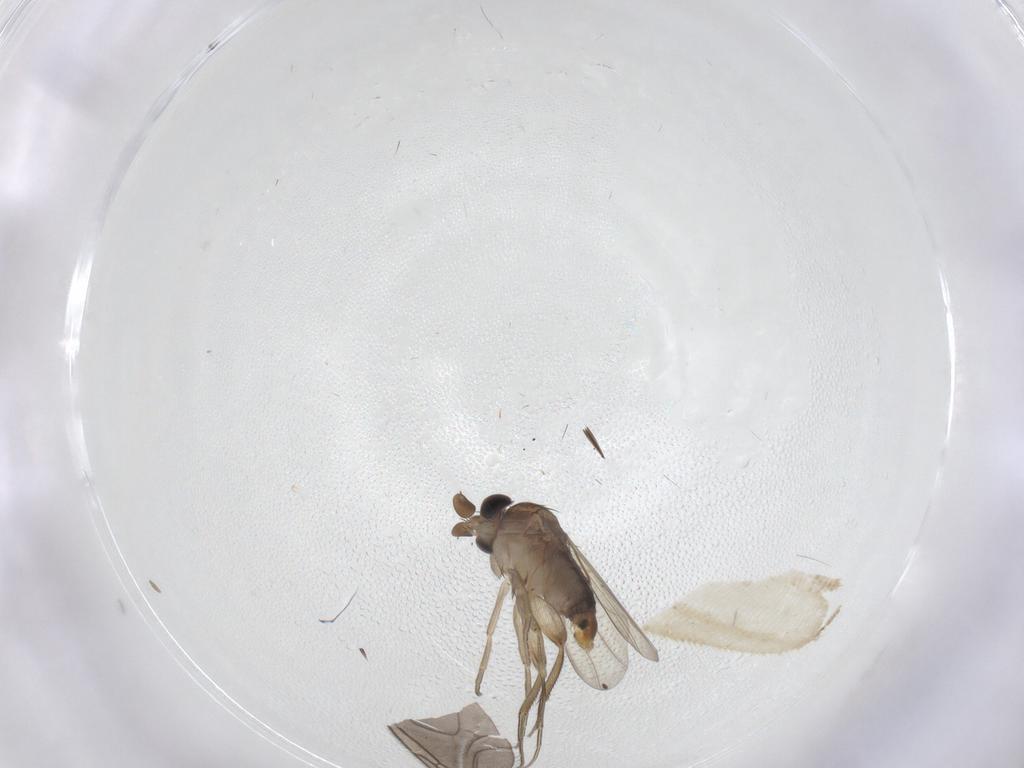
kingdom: Animalia
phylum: Arthropoda
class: Insecta
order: Diptera
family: Phoridae
